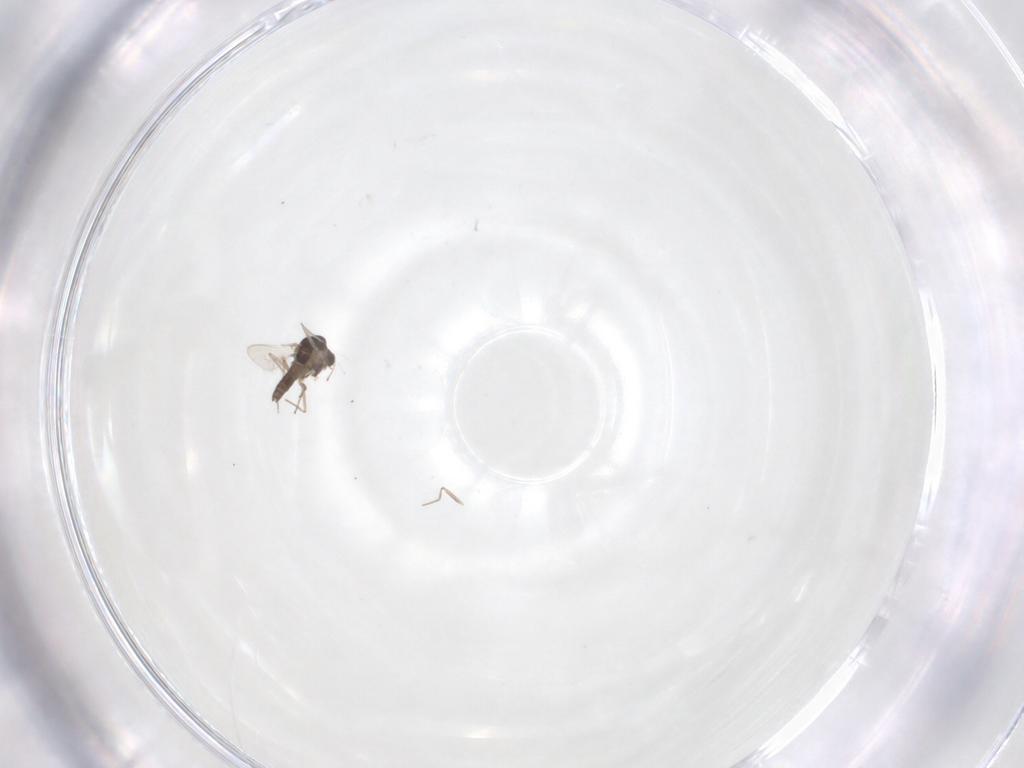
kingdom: Animalia
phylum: Arthropoda
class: Insecta
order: Diptera
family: Chironomidae
